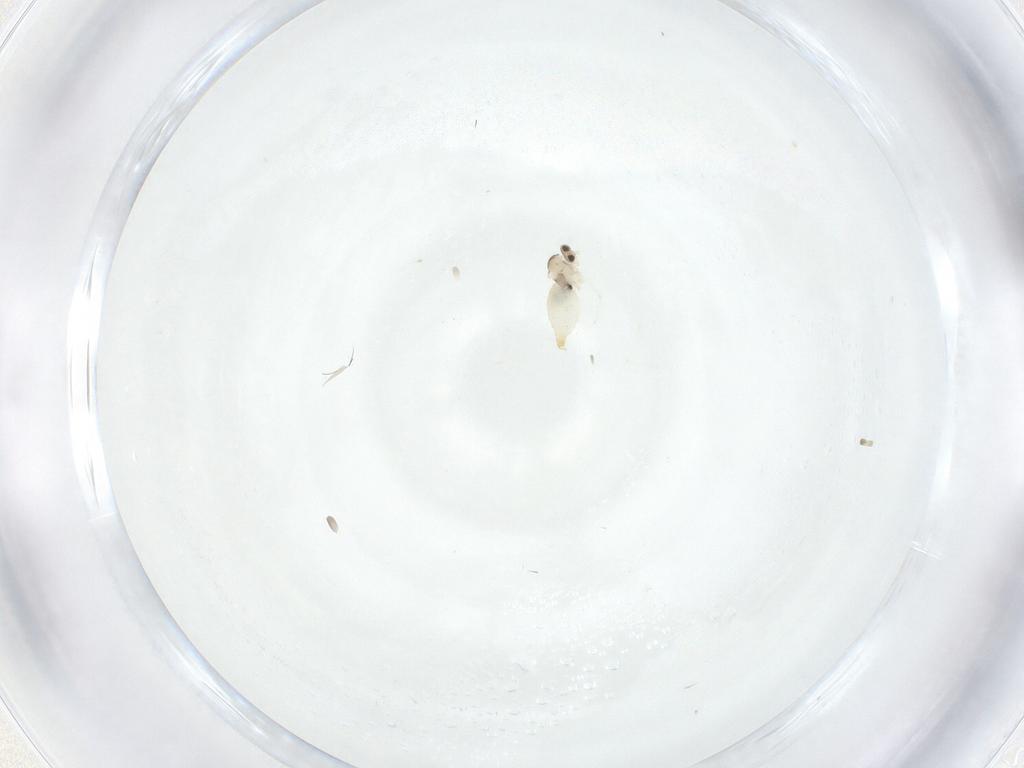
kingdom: Animalia
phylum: Arthropoda
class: Insecta
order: Diptera
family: Cecidomyiidae
